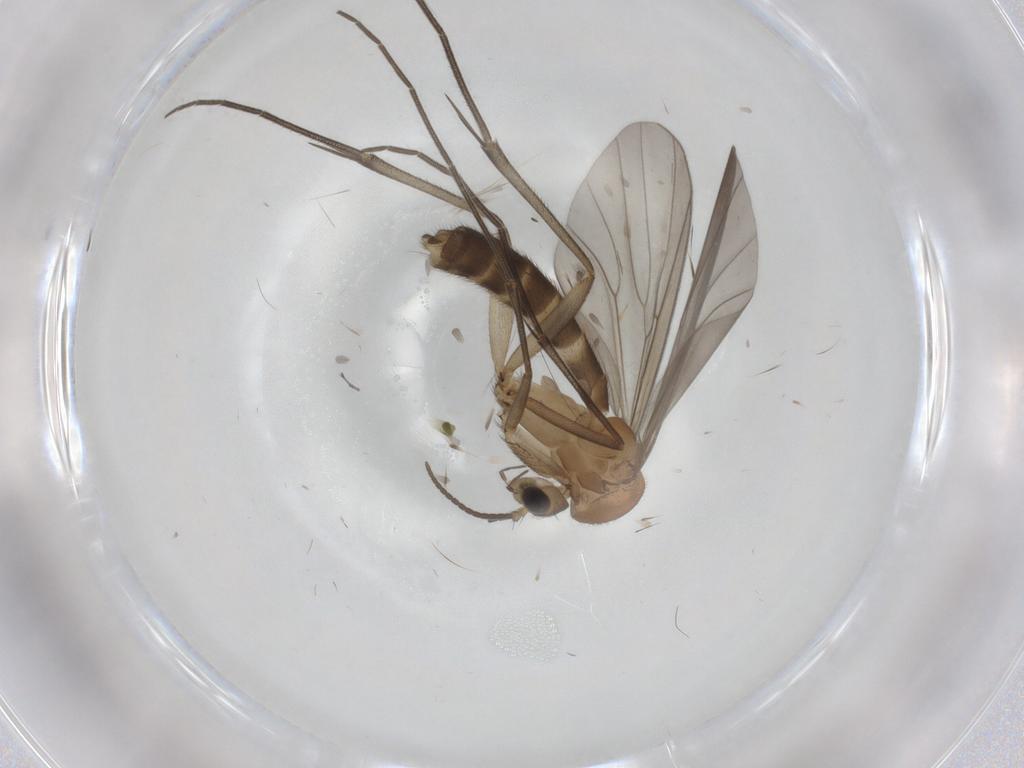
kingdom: Animalia
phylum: Arthropoda
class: Insecta
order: Diptera
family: Mycetophilidae
